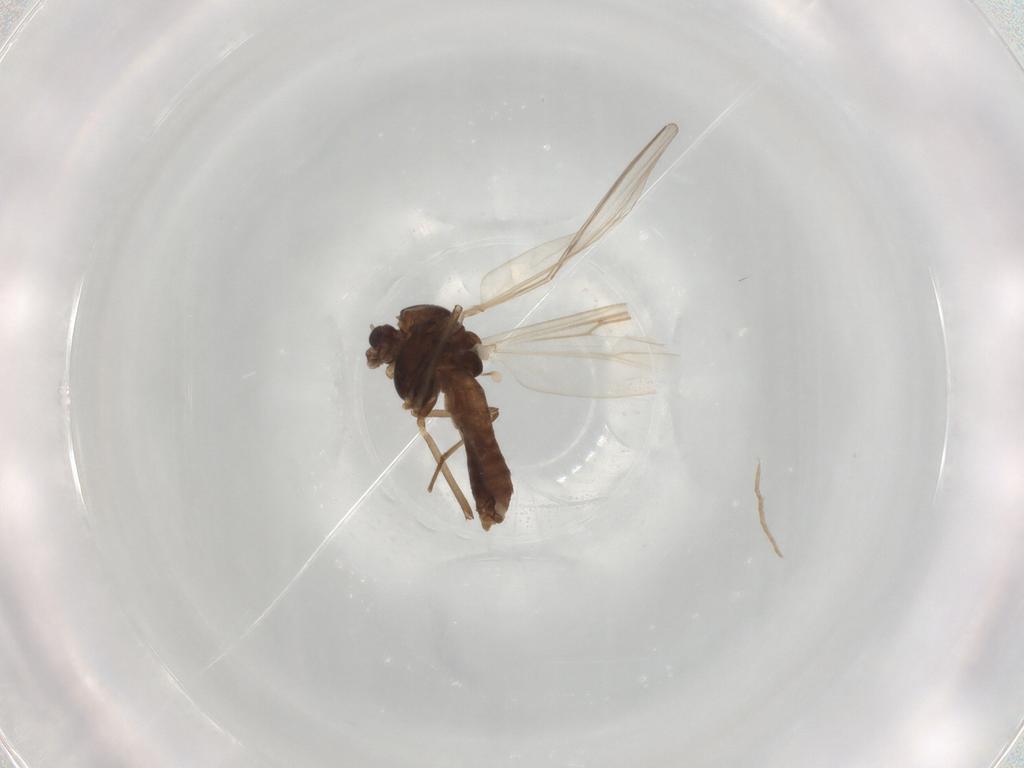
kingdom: Animalia
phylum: Arthropoda
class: Insecta
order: Diptera
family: Chironomidae
